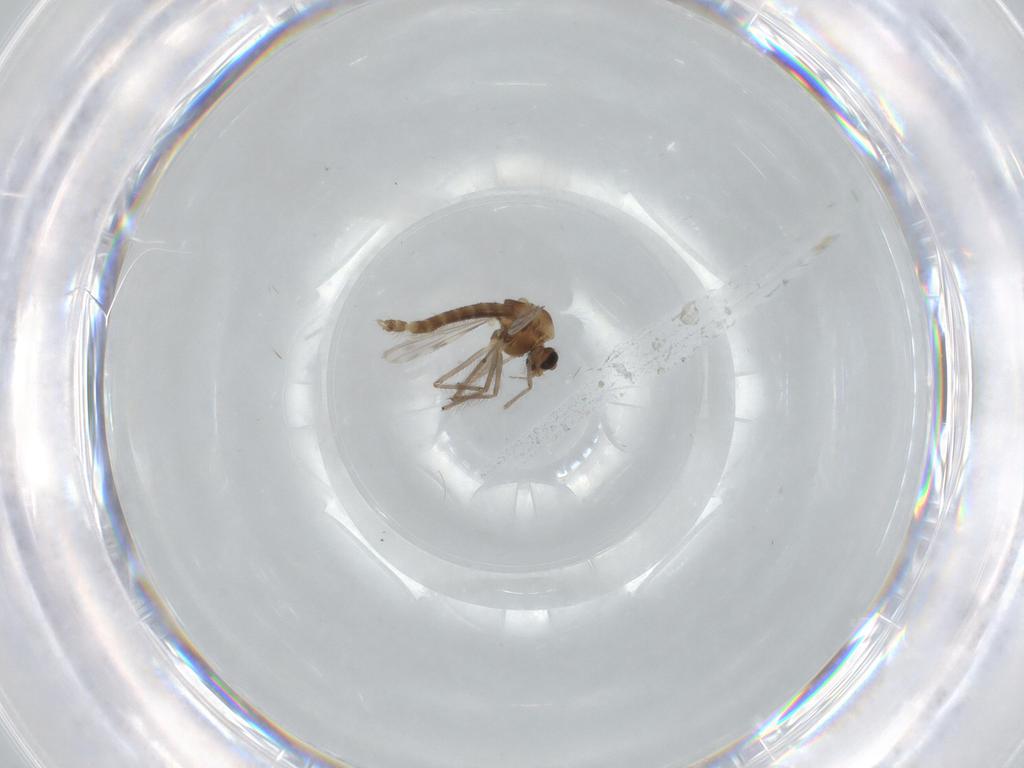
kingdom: Animalia
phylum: Arthropoda
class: Insecta
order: Diptera
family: Chironomidae
